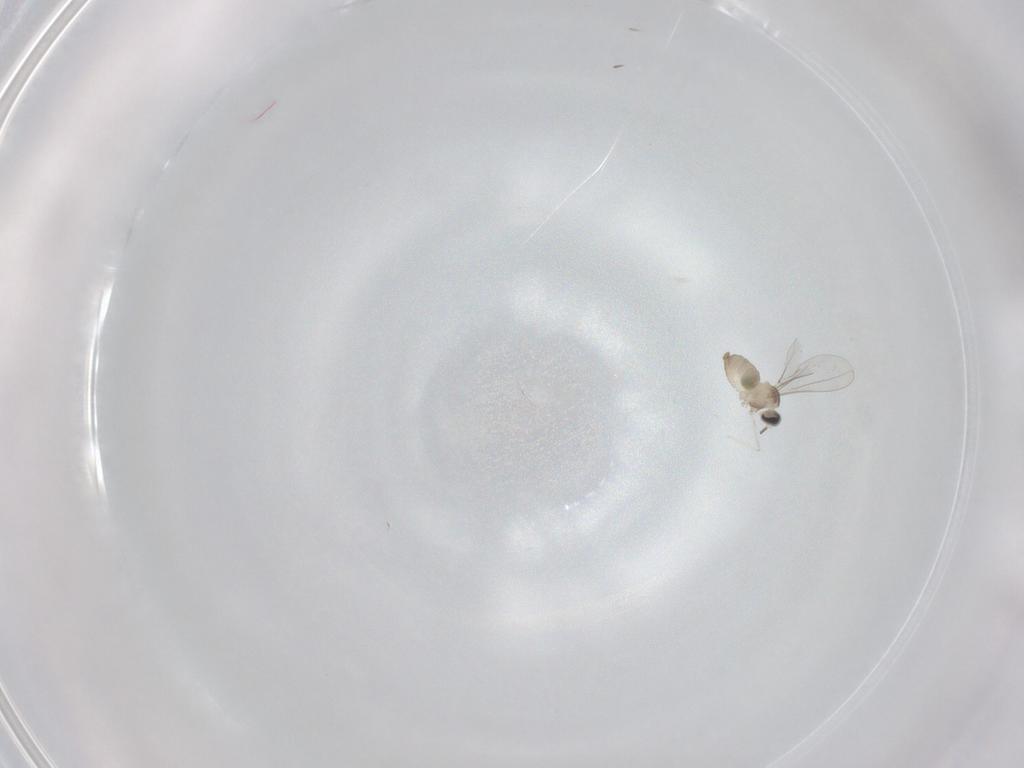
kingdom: Animalia
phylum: Arthropoda
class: Insecta
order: Diptera
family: Cecidomyiidae
